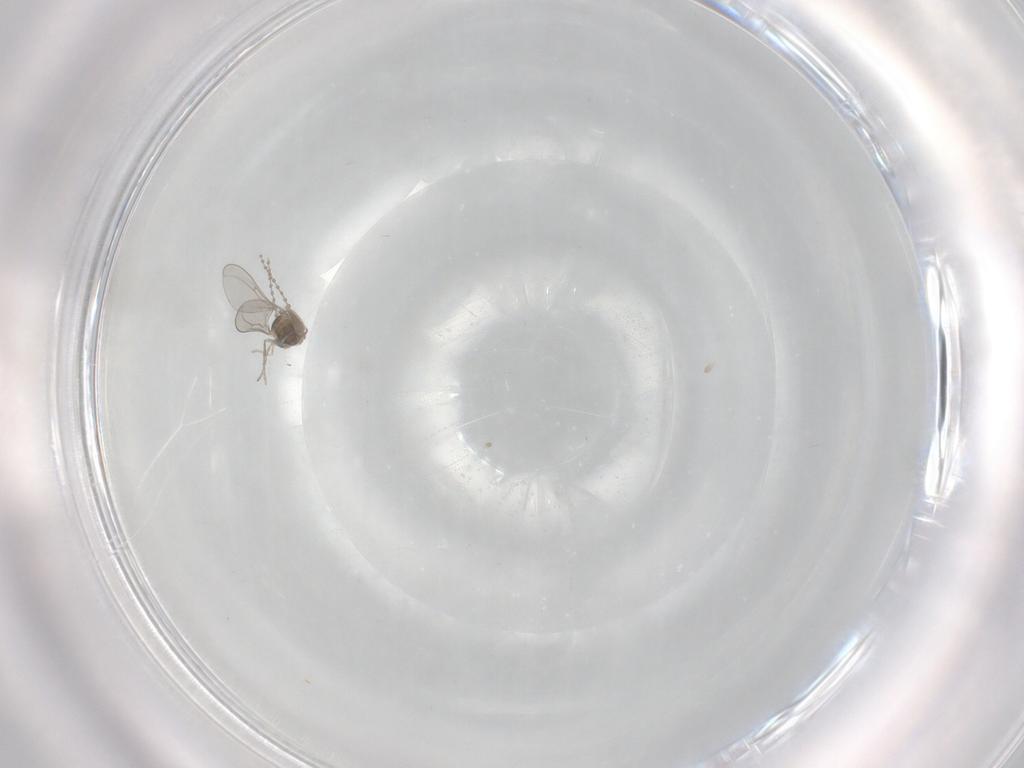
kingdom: Animalia
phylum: Arthropoda
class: Insecta
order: Diptera
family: Cecidomyiidae
